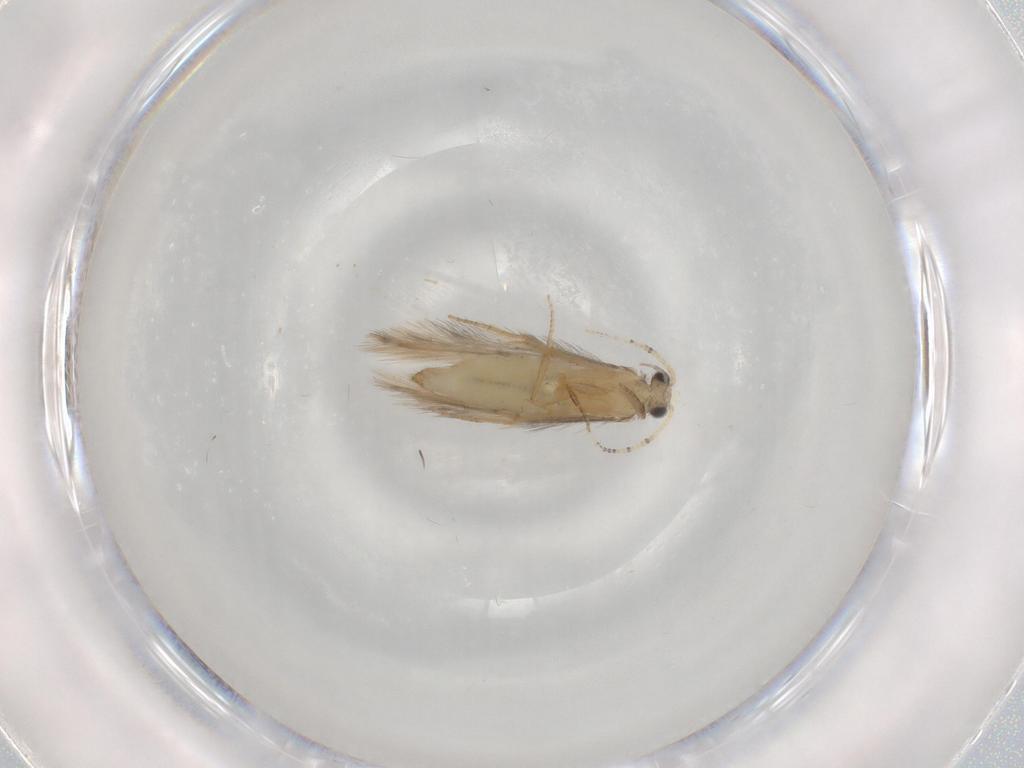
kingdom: Animalia
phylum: Arthropoda
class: Insecta
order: Trichoptera
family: Hydroptilidae
